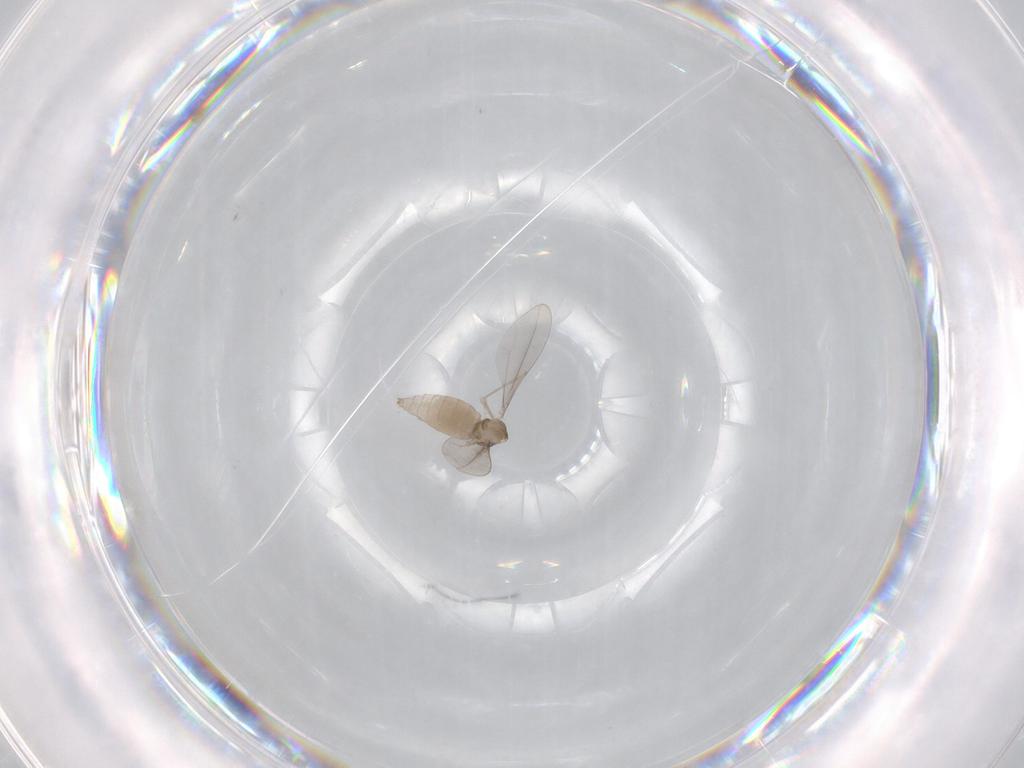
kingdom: Animalia
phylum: Arthropoda
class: Insecta
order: Diptera
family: Cecidomyiidae
